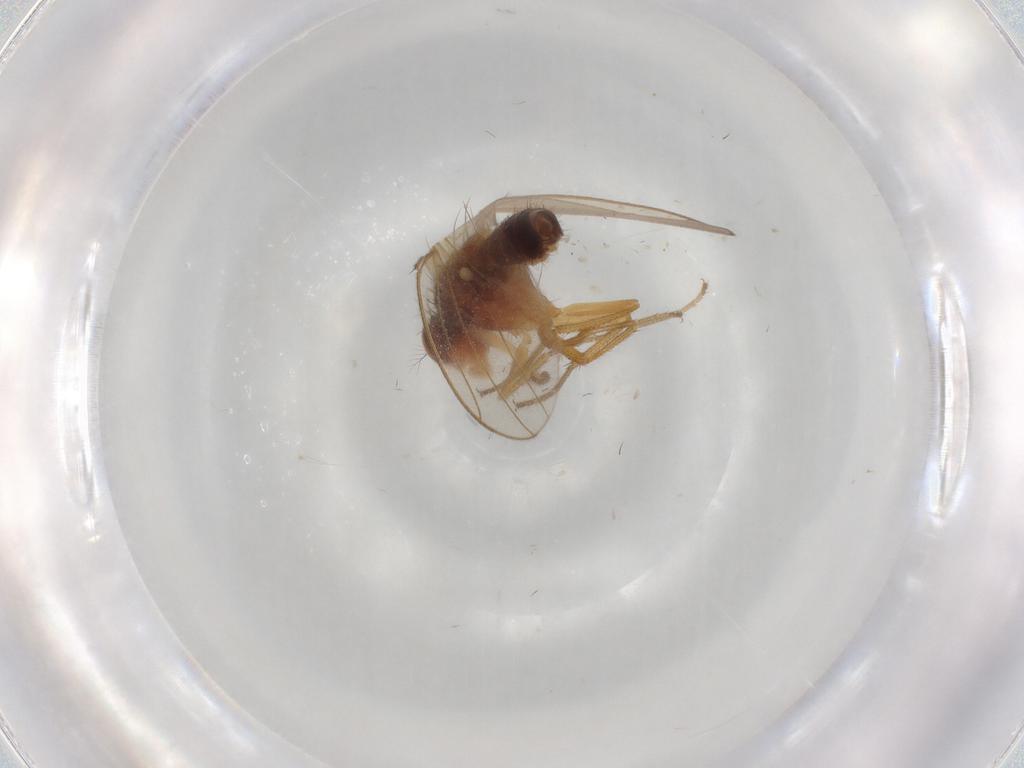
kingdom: Animalia
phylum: Arthropoda
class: Insecta
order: Diptera
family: Drosophilidae
